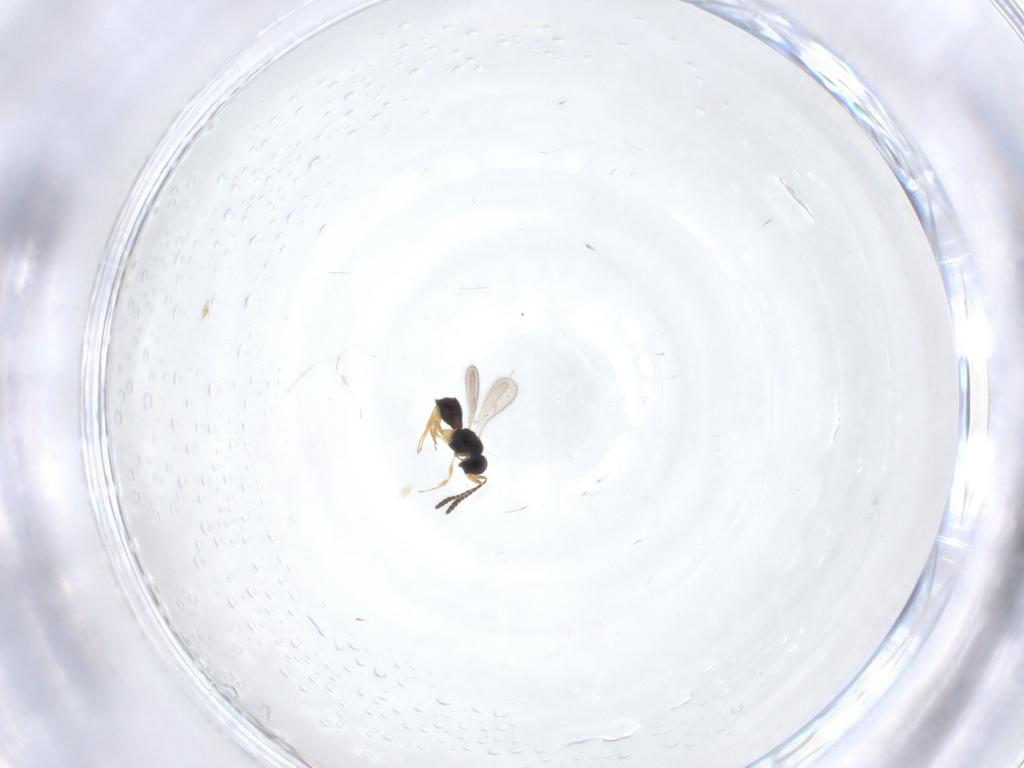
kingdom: Animalia
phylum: Arthropoda
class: Insecta
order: Hymenoptera
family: Scelionidae
